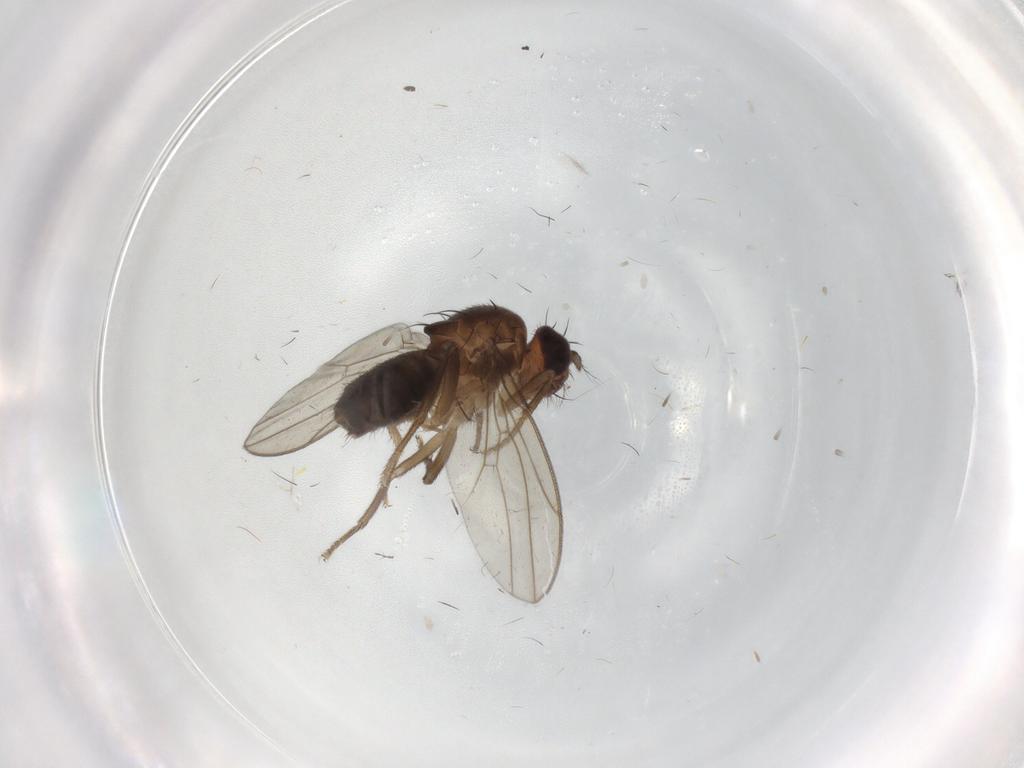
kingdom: Animalia
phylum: Arthropoda
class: Insecta
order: Diptera
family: Drosophilidae
